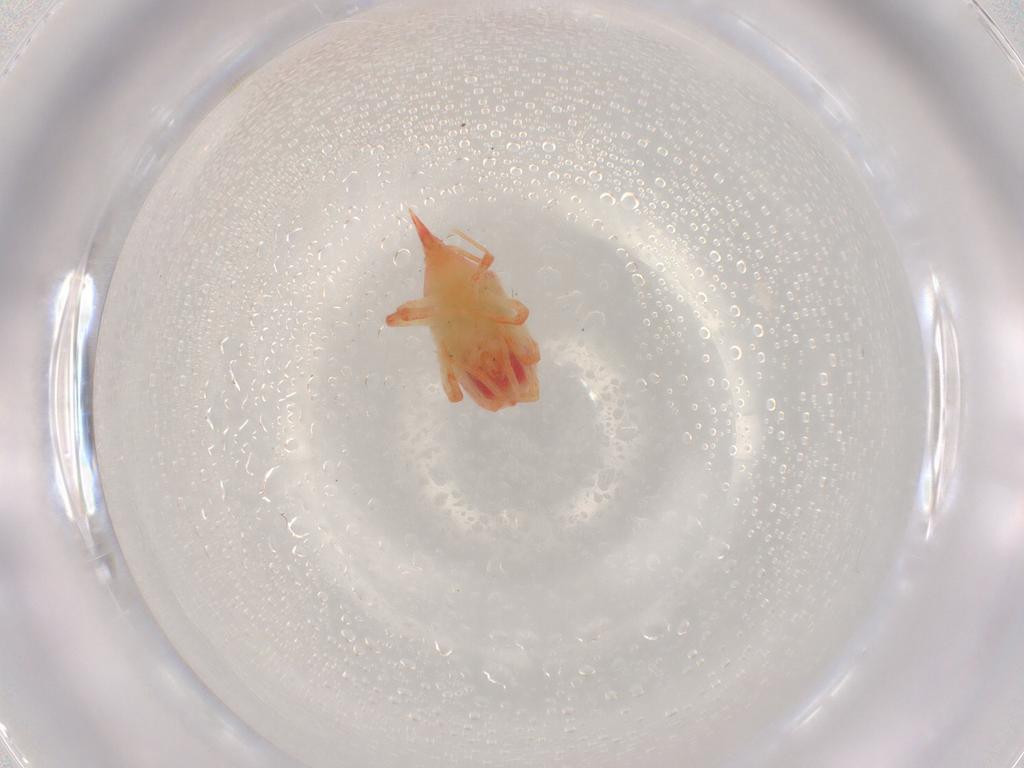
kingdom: Animalia
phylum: Arthropoda
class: Arachnida
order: Trombidiformes
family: Bdellidae
